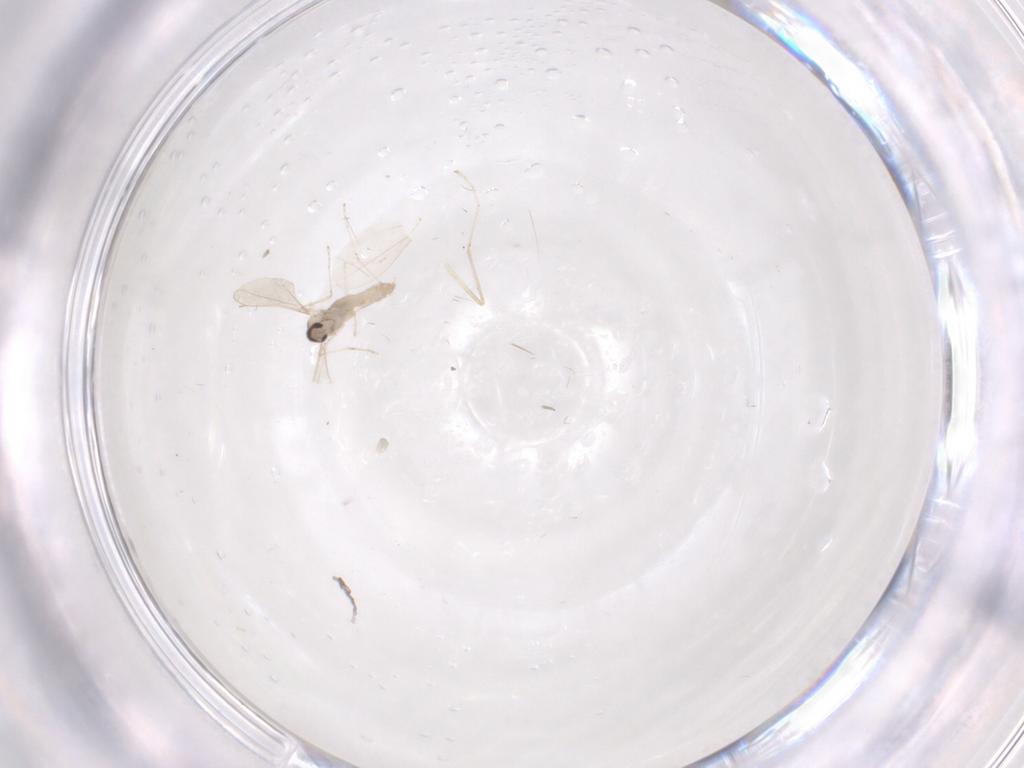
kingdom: Animalia
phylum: Arthropoda
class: Insecta
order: Diptera
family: Cecidomyiidae
